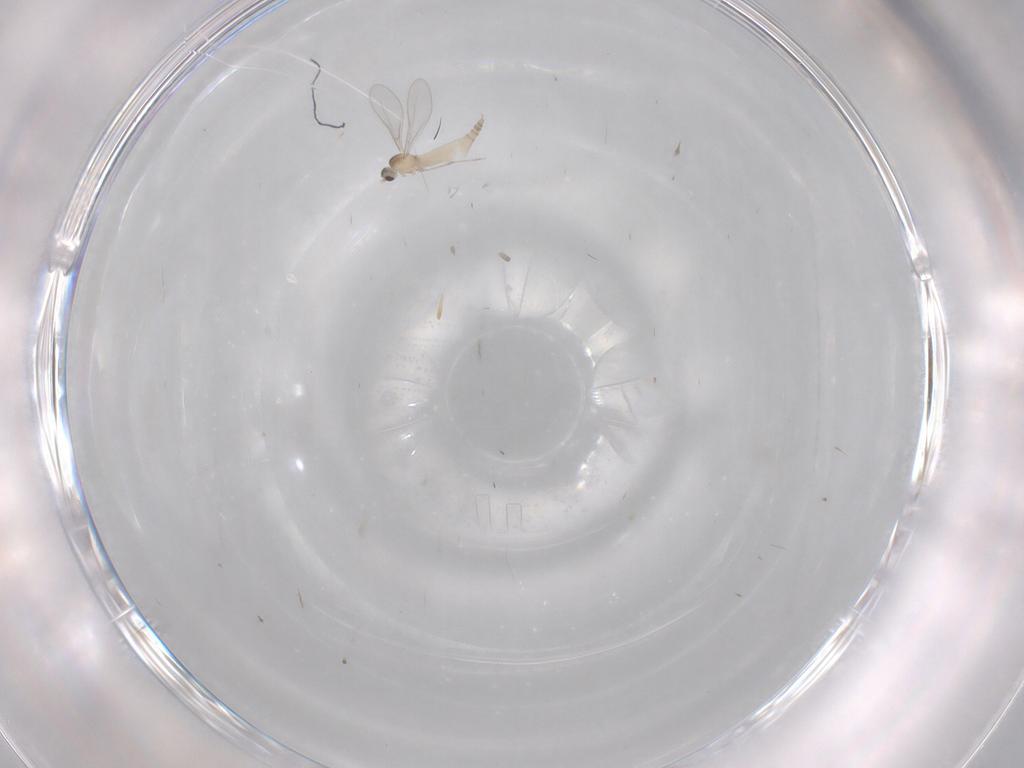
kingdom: Animalia
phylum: Arthropoda
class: Insecta
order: Diptera
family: Cecidomyiidae
